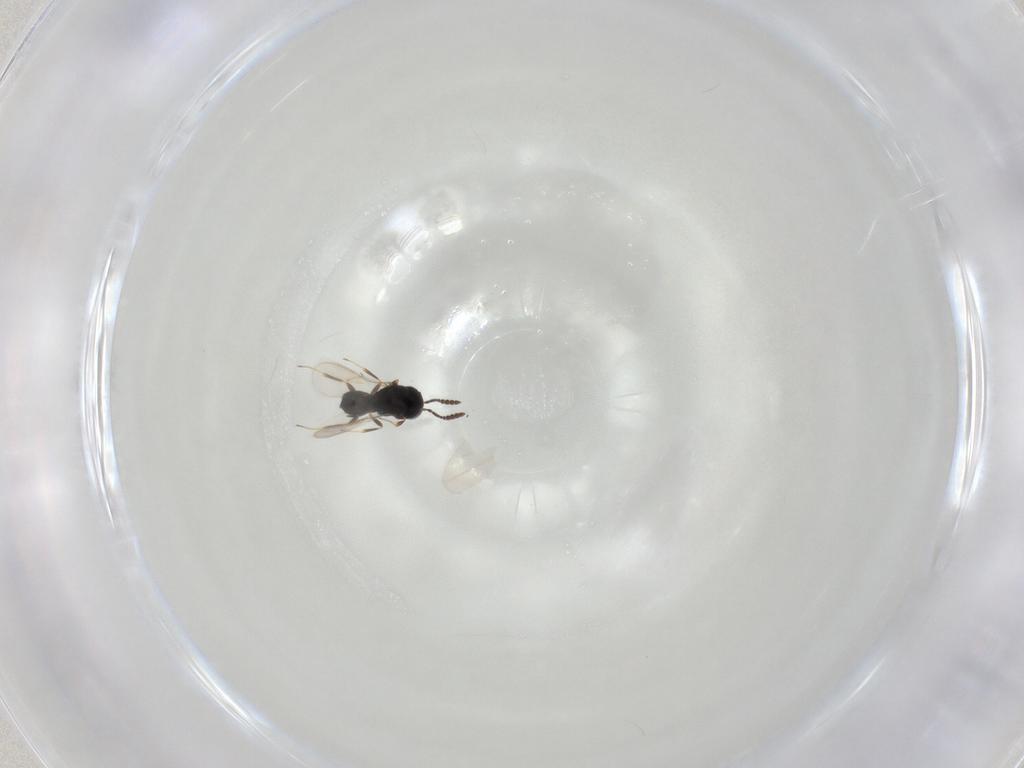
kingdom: Animalia
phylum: Arthropoda
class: Insecta
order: Hymenoptera
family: Scelionidae
